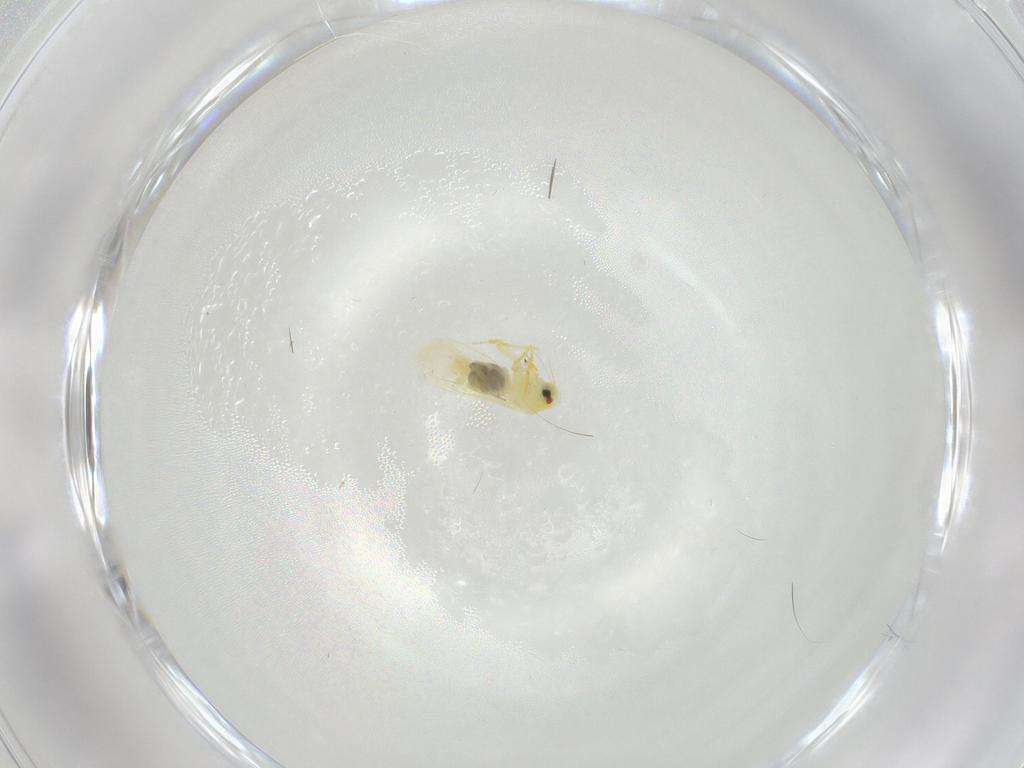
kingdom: Animalia
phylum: Arthropoda
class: Insecta
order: Hemiptera
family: Aleyrodidae
